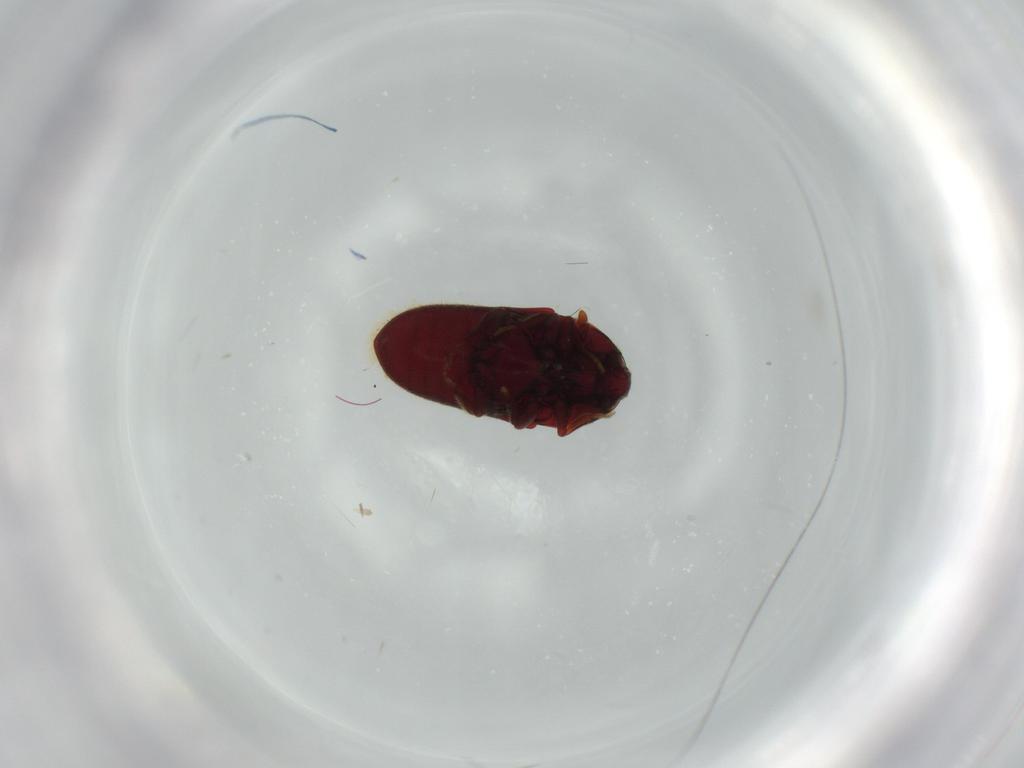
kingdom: Animalia
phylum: Arthropoda
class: Insecta
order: Coleoptera
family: Throscidae
